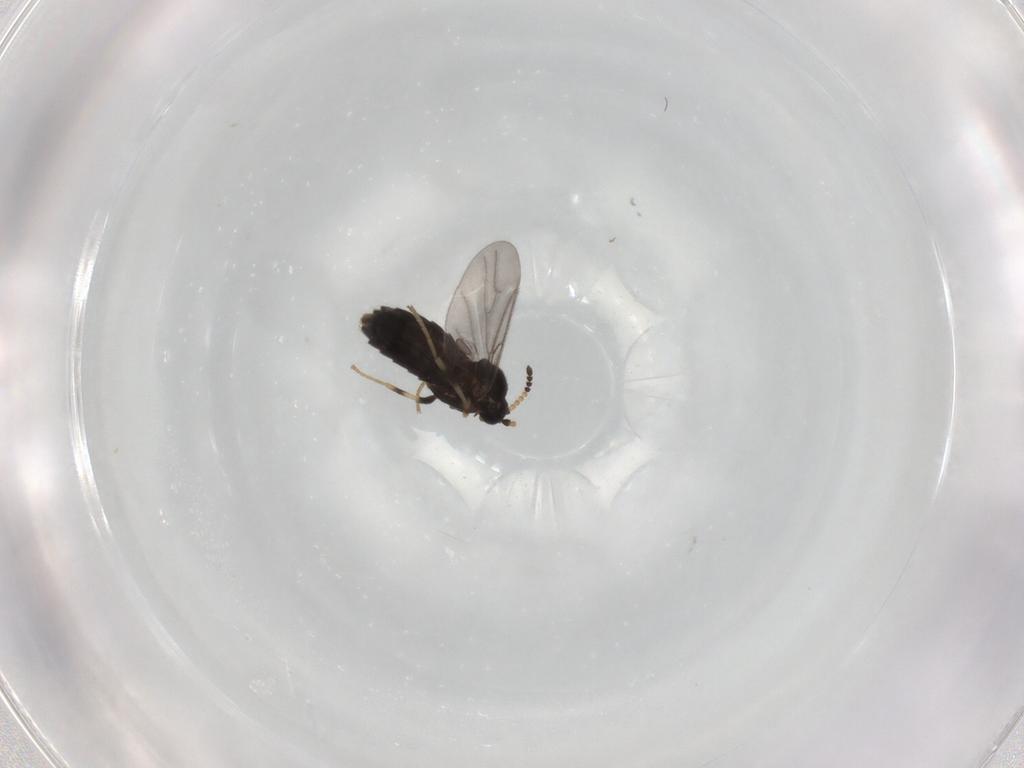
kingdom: Animalia
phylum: Arthropoda
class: Insecta
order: Diptera
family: Scatopsidae
